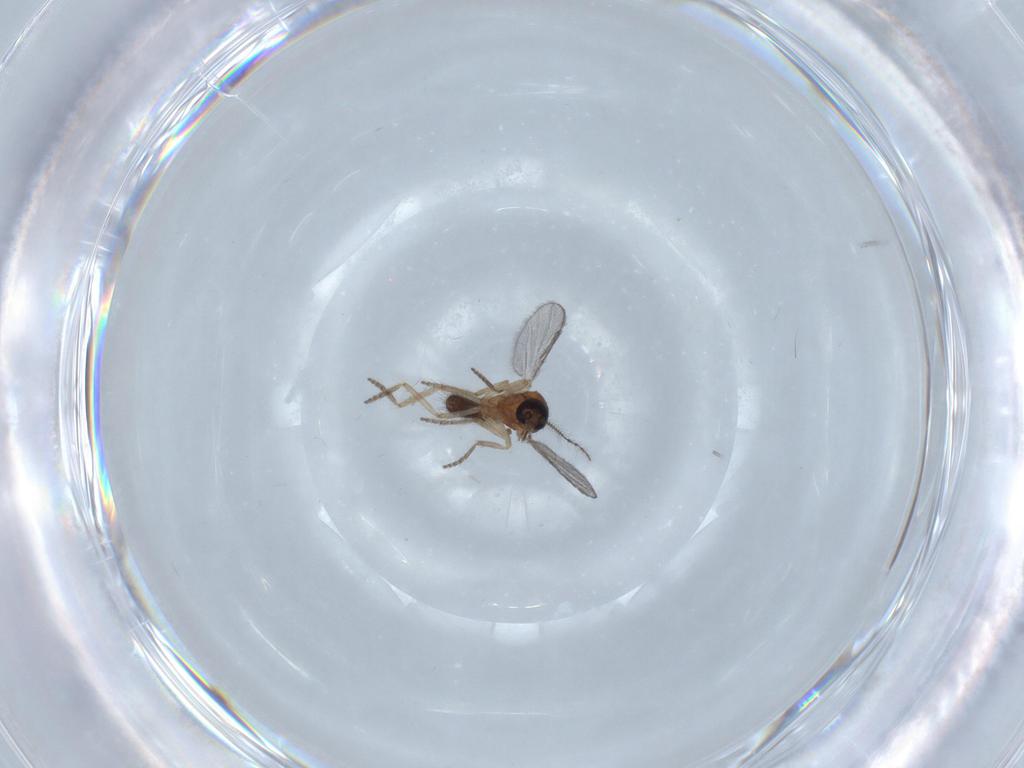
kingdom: Animalia
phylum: Arthropoda
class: Insecta
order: Diptera
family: Ceratopogonidae
